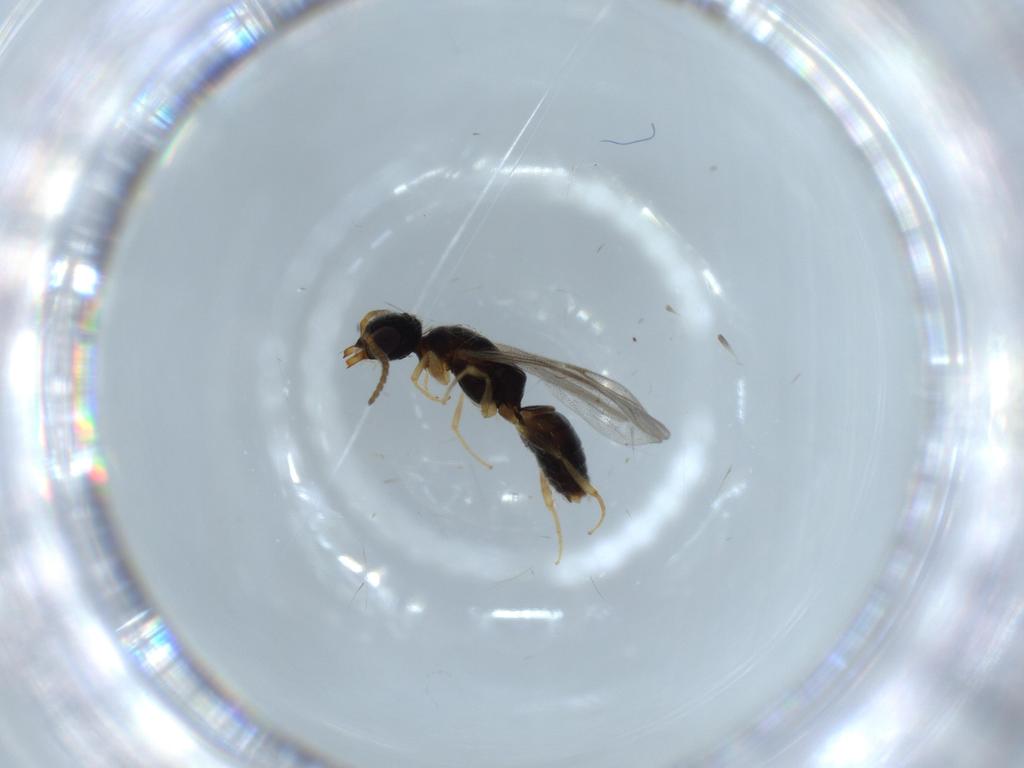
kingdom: Animalia
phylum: Arthropoda
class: Insecta
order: Hymenoptera
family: Bethylidae
